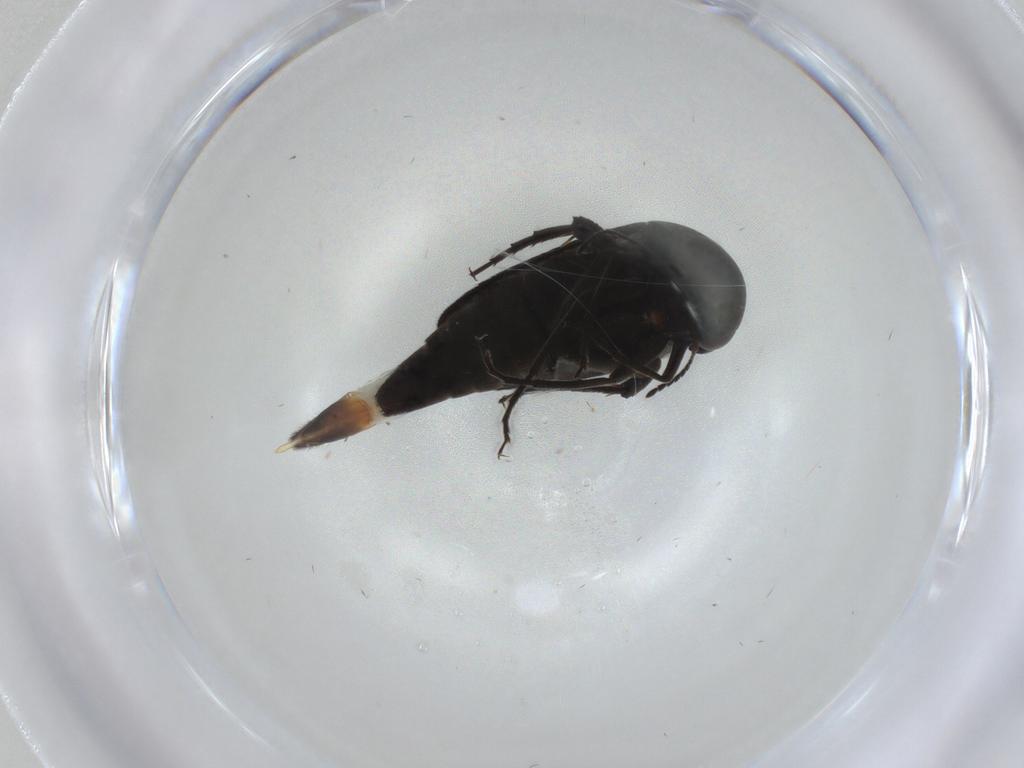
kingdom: Animalia
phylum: Arthropoda
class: Insecta
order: Coleoptera
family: Mordellidae
